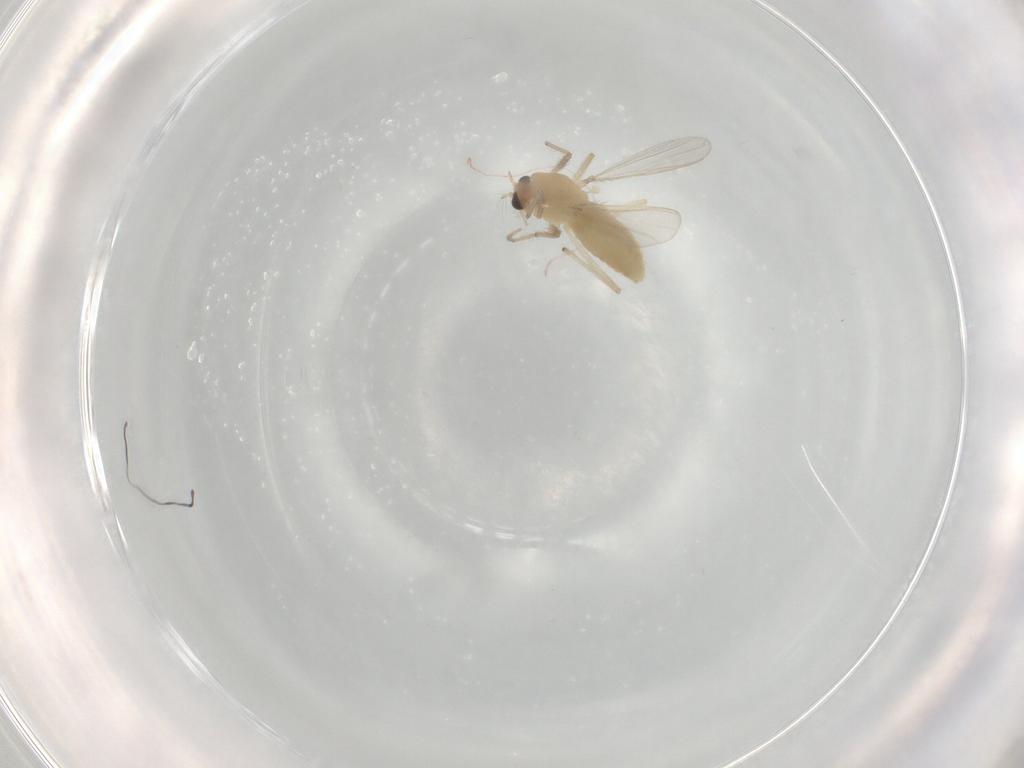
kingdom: Animalia
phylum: Arthropoda
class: Insecta
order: Diptera
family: Chironomidae
